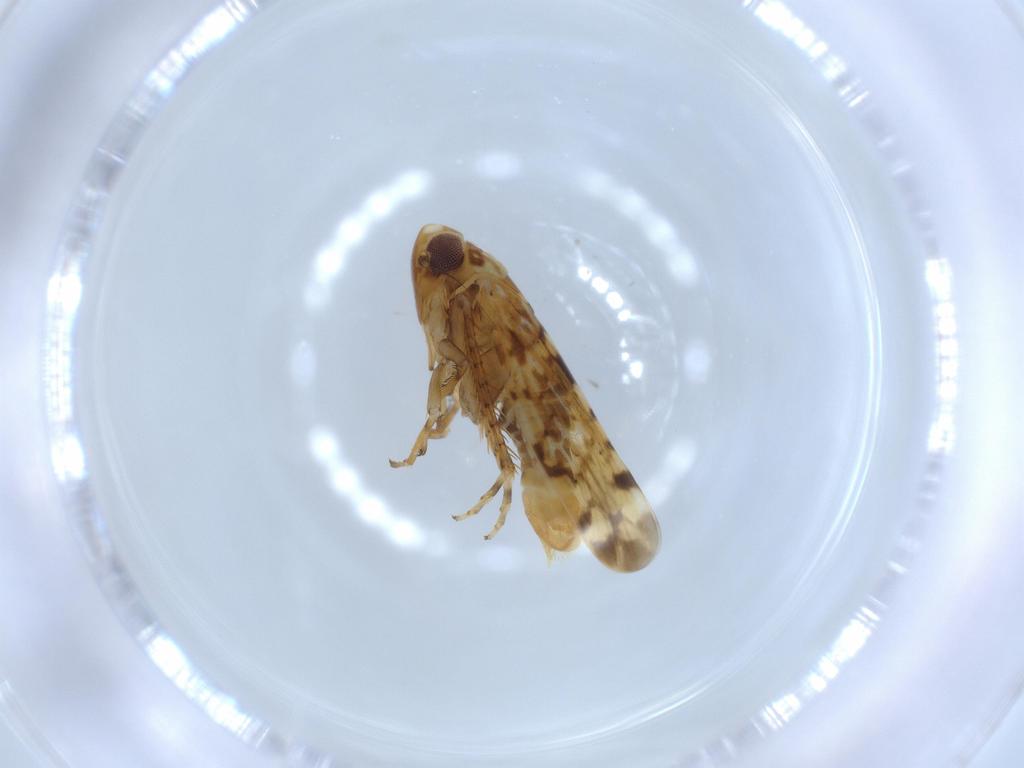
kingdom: Animalia
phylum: Arthropoda
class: Insecta
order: Hemiptera
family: Cicadellidae
